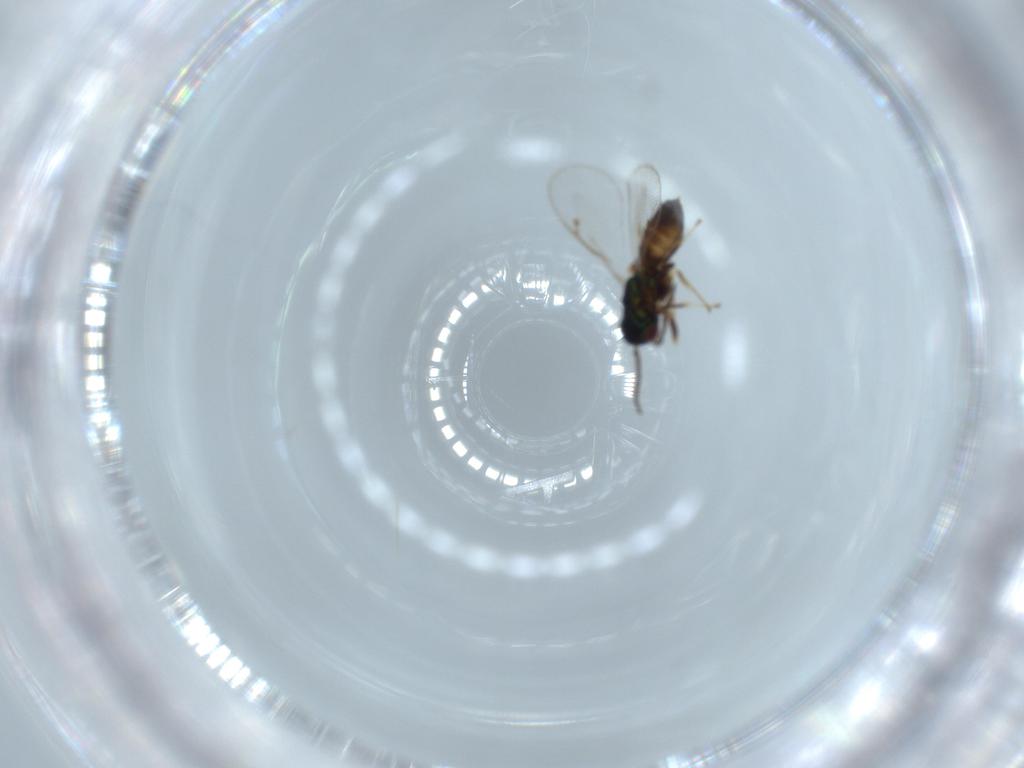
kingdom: Animalia
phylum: Arthropoda
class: Insecta
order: Hymenoptera
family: Pteromalidae
